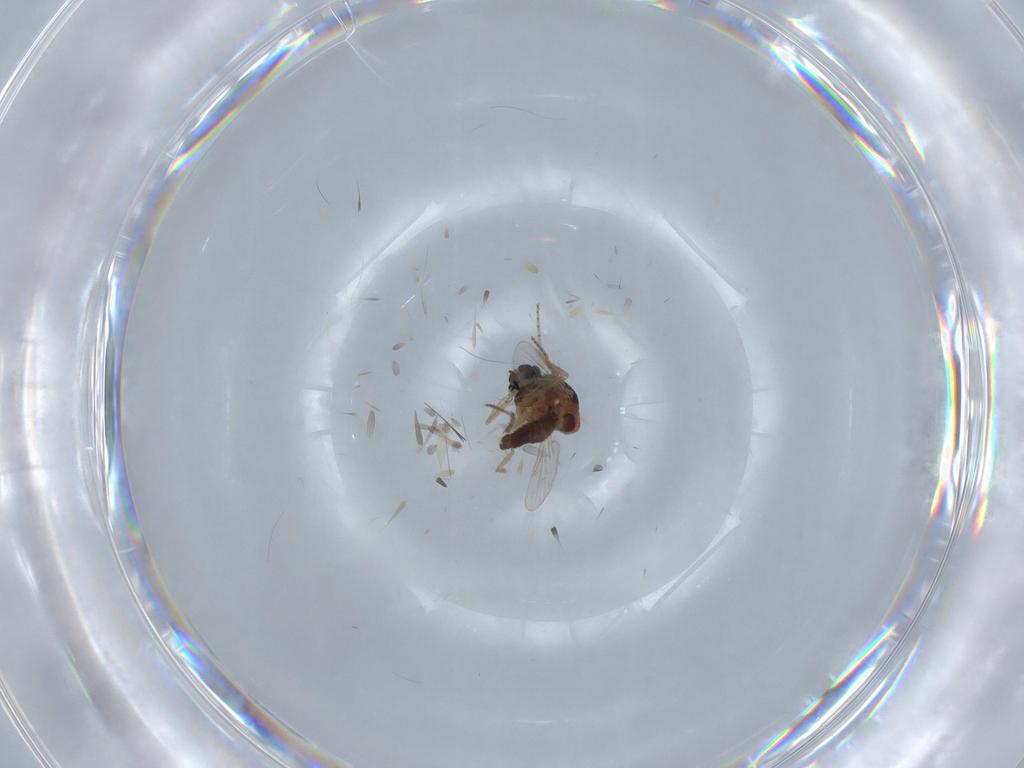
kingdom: Animalia
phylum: Arthropoda
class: Insecta
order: Diptera
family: Ceratopogonidae
